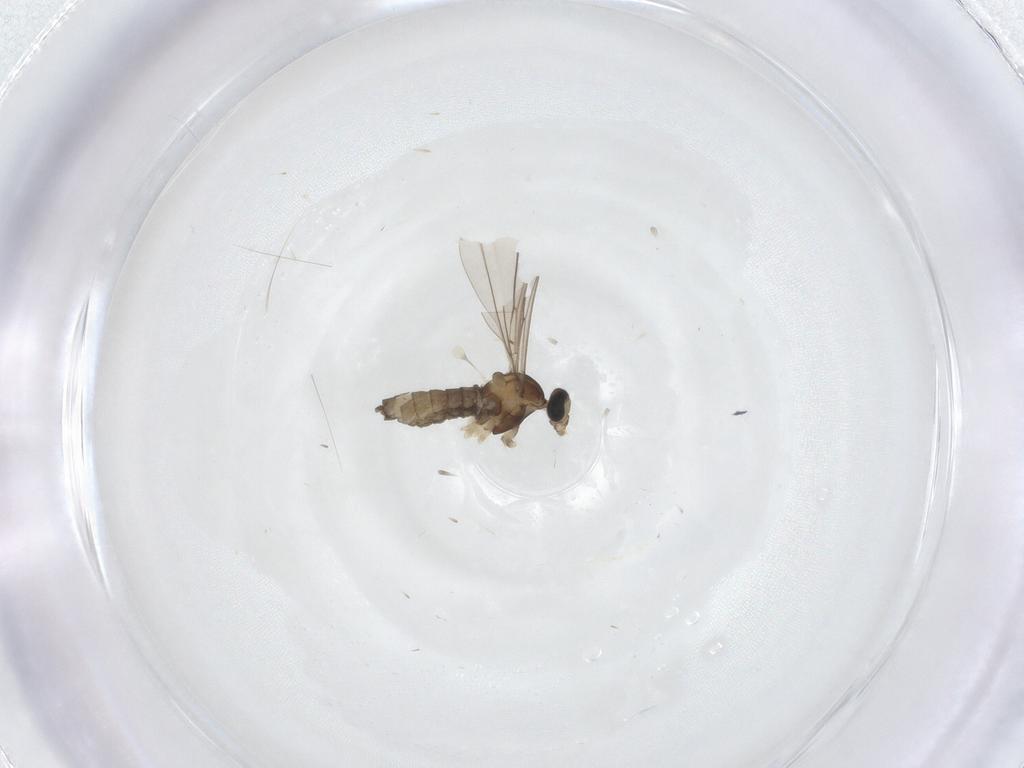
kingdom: Animalia
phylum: Arthropoda
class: Insecta
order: Diptera
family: Cecidomyiidae
